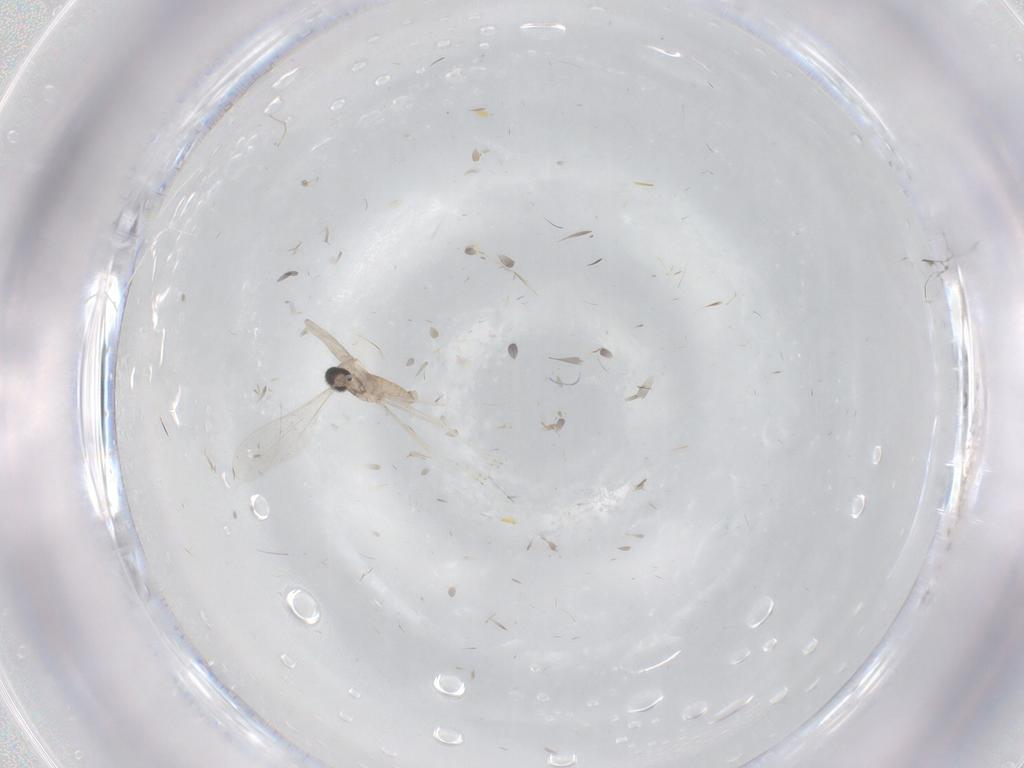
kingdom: Animalia
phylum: Arthropoda
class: Insecta
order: Diptera
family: Cecidomyiidae
